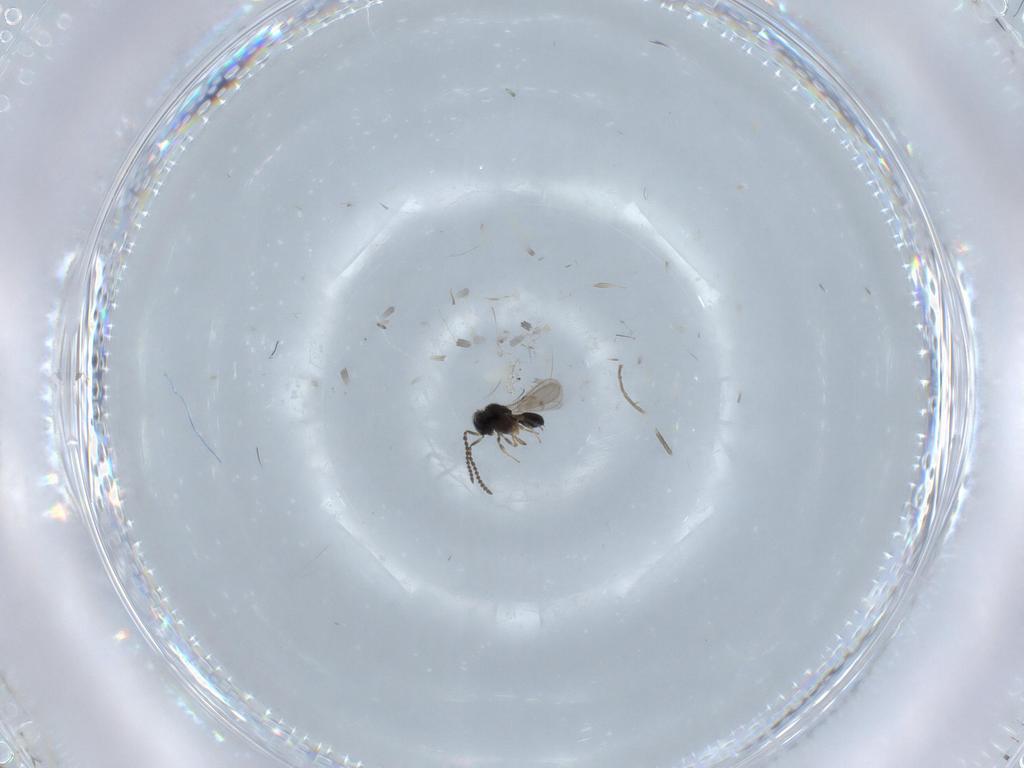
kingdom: Animalia
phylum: Arthropoda
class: Insecta
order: Hymenoptera
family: Scelionidae
